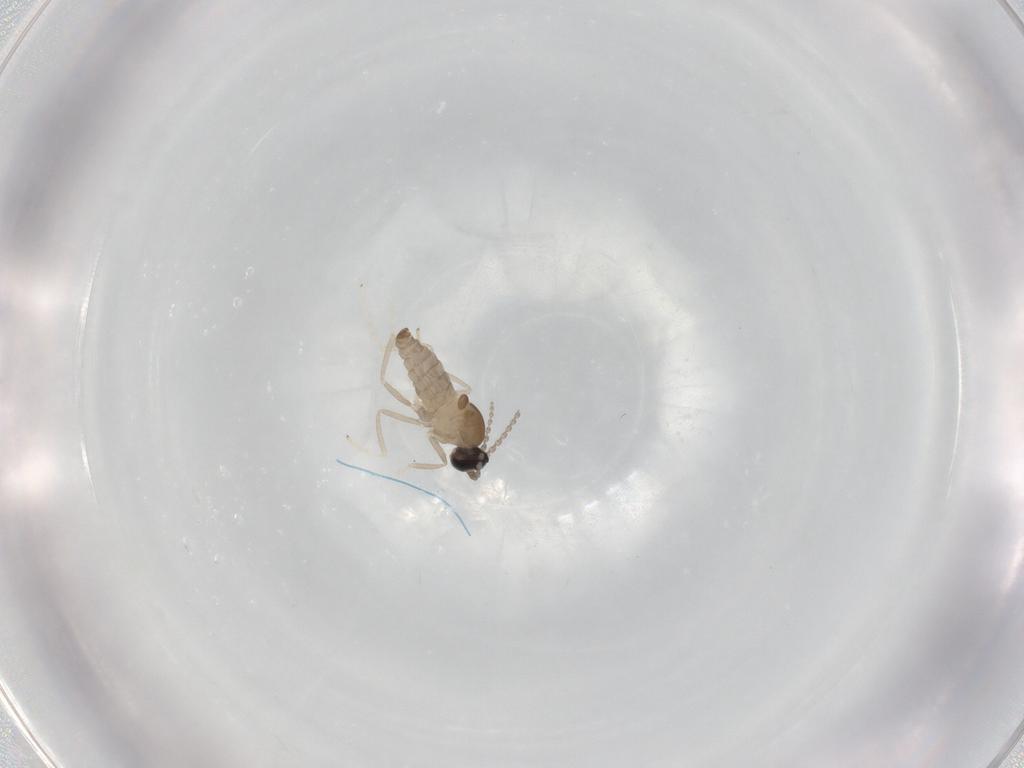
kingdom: Animalia
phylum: Arthropoda
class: Insecta
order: Diptera
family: Cecidomyiidae
